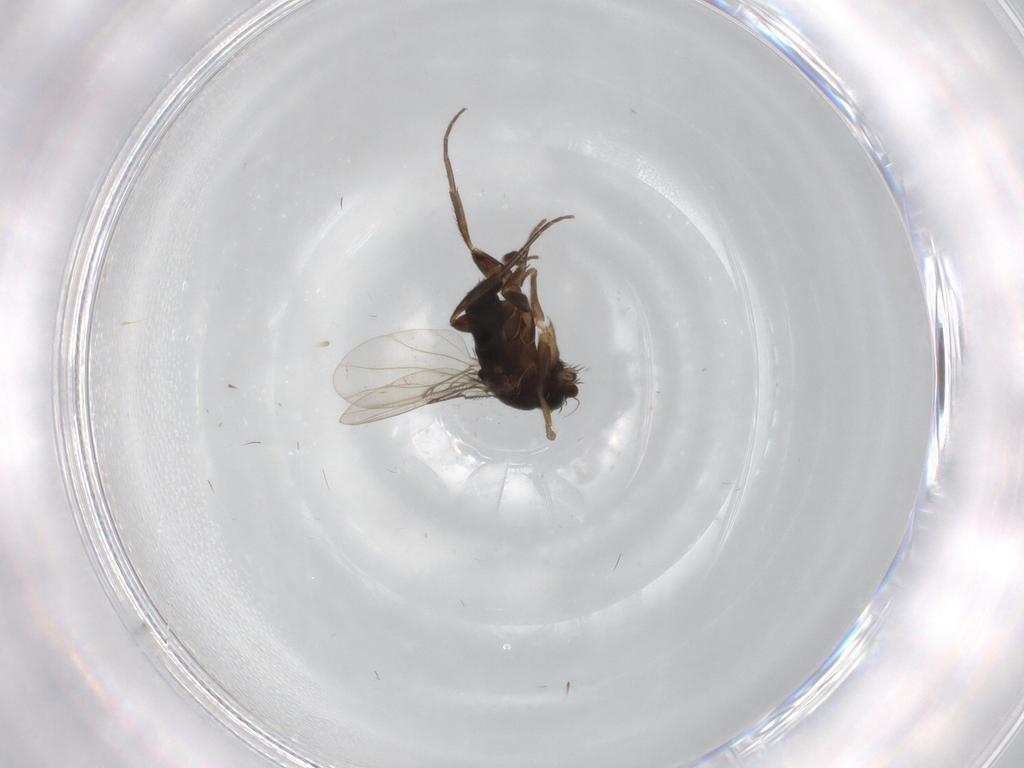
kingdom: Animalia
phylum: Arthropoda
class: Insecta
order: Diptera
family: Phoridae
